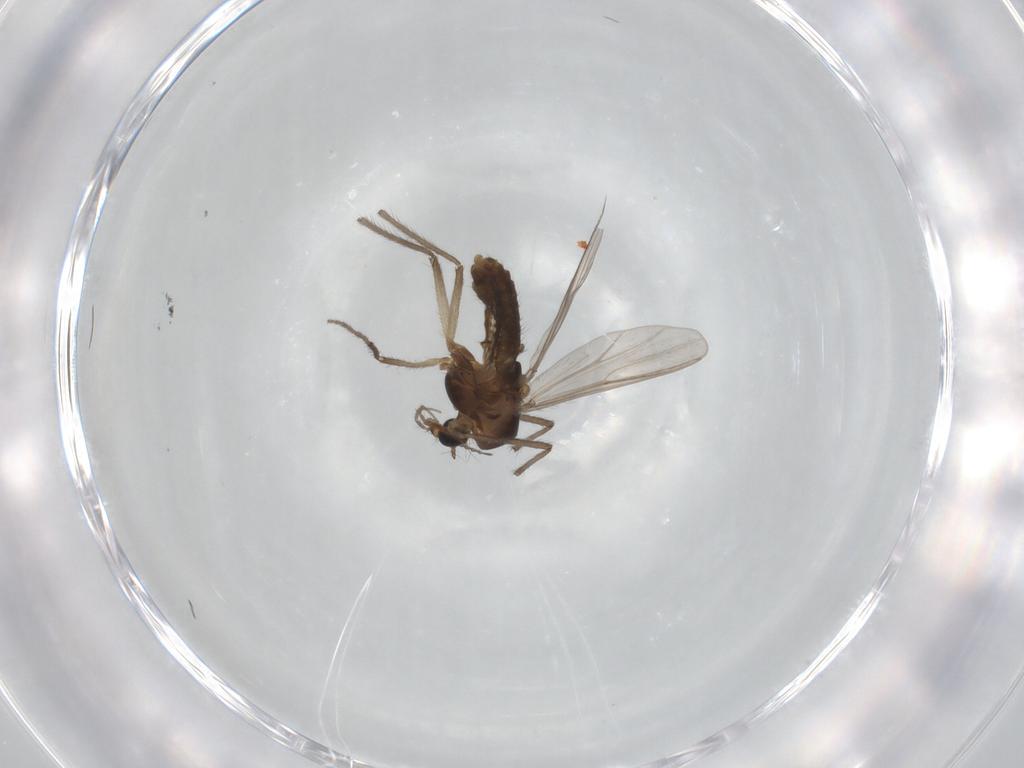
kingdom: Animalia
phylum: Arthropoda
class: Insecta
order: Diptera
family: Chironomidae
